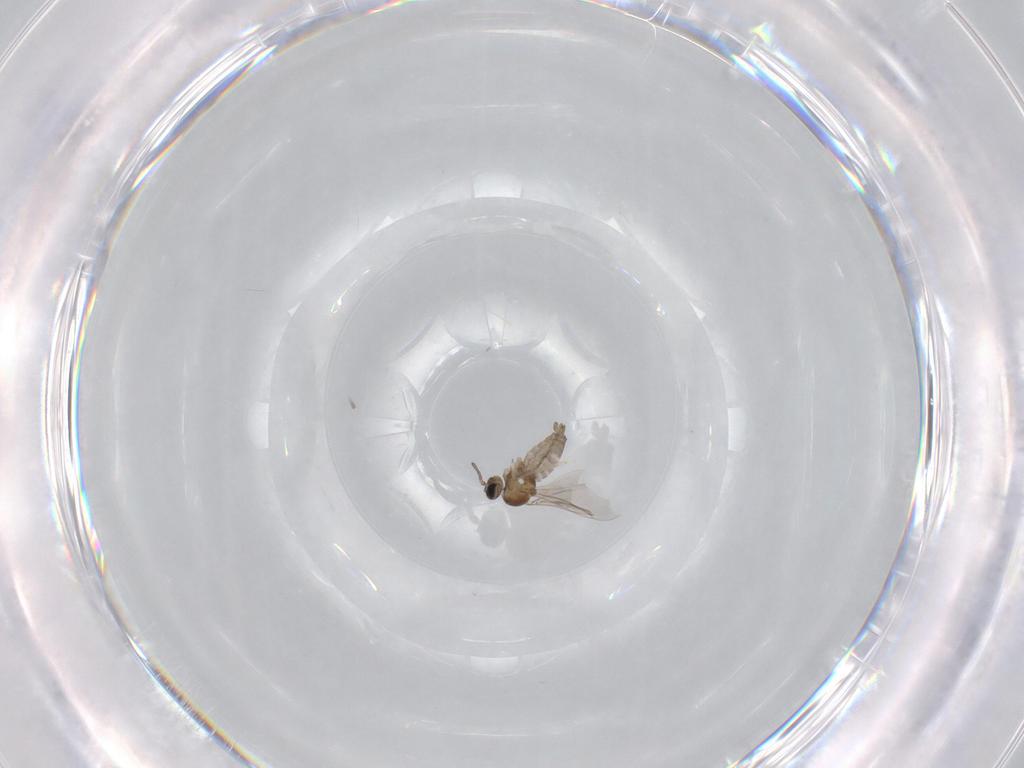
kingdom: Animalia
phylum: Arthropoda
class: Insecta
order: Diptera
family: Cecidomyiidae
